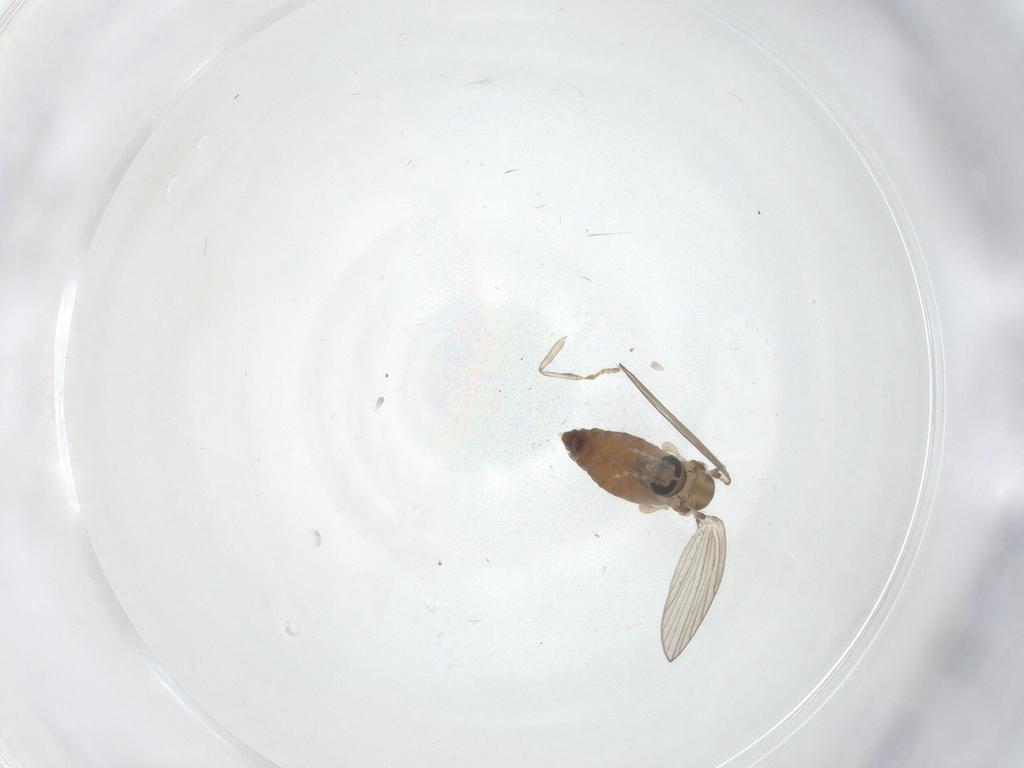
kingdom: Animalia
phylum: Arthropoda
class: Insecta
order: Diptera
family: Psychodidae
